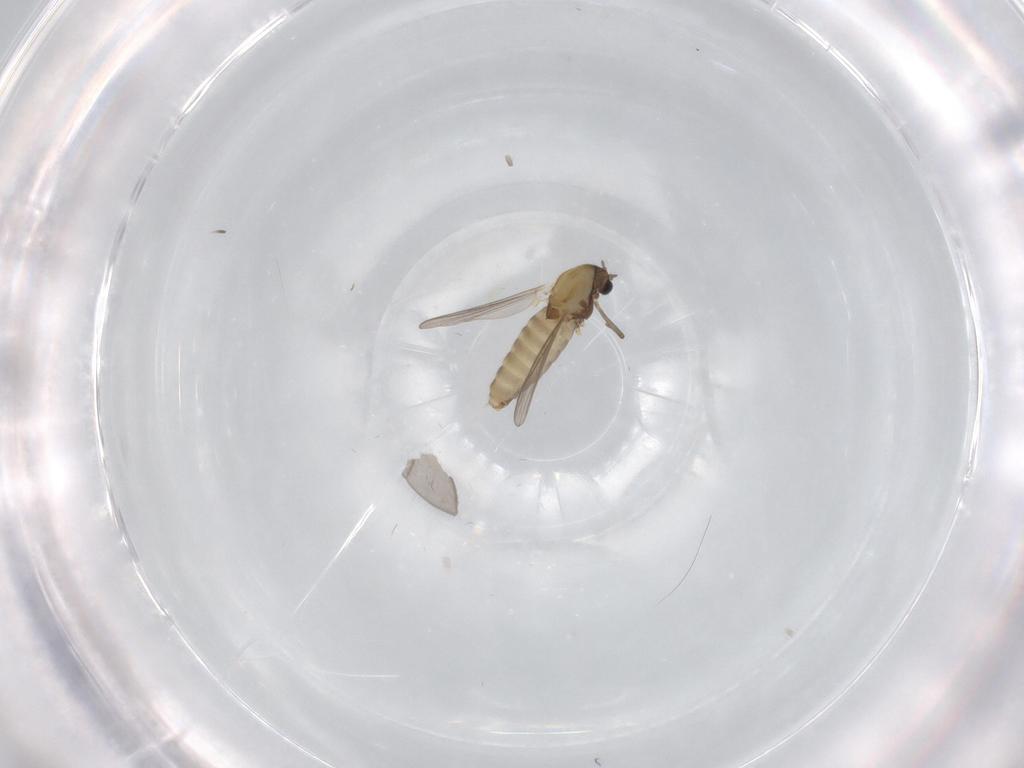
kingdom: Animalia
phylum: Arthropoda
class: Insecta
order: Diptera
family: Chironomidae
